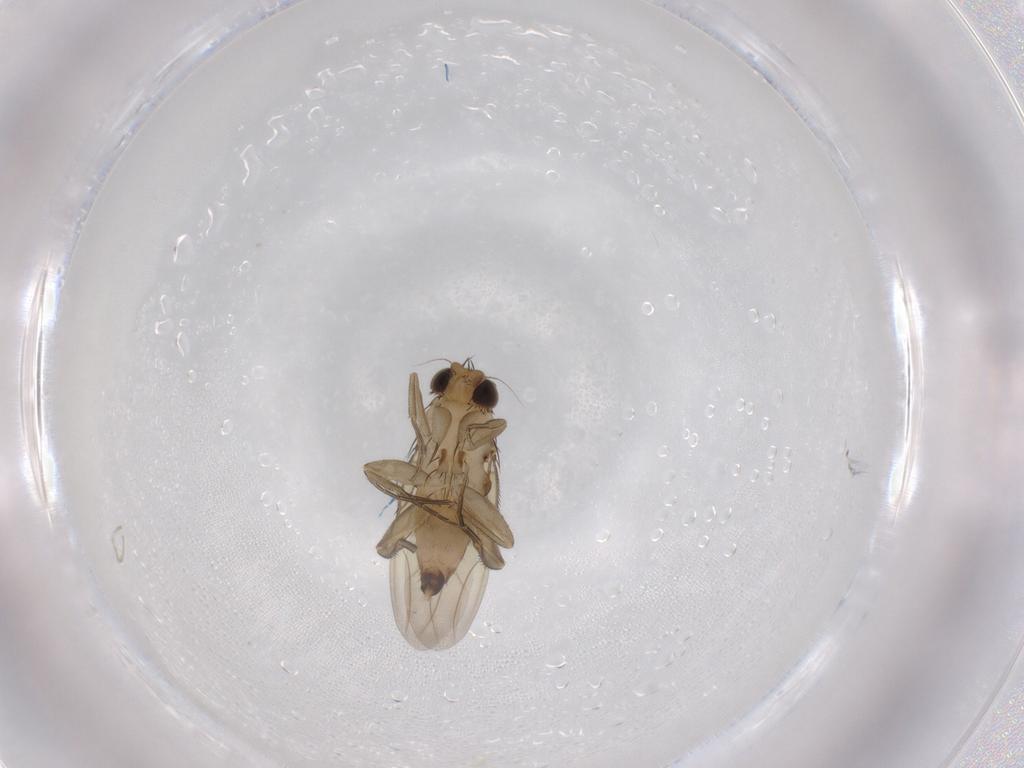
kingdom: Animalia
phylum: Arthropoda
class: Insecta
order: Diptera
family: Phoridae
